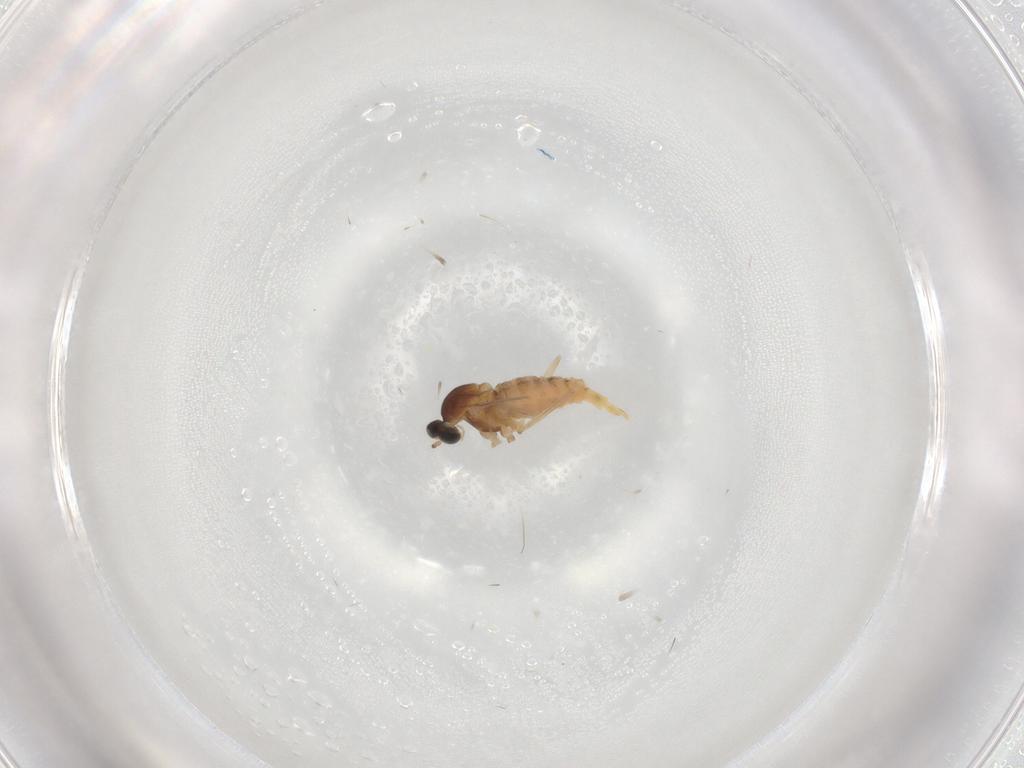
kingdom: Animalia
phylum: Arthropoda
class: Insecta
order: Diptera
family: Cecidomyiidae
